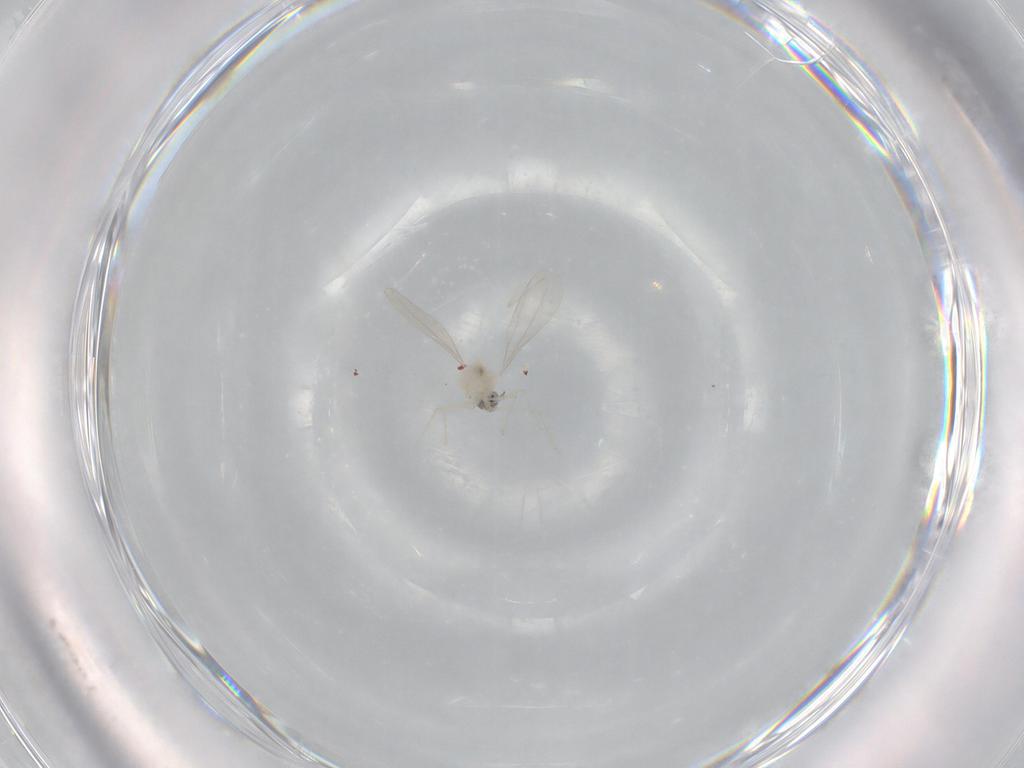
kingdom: Animalia
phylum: Arthropoda
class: Insecta
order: Diptera
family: Cecidomyiidae
